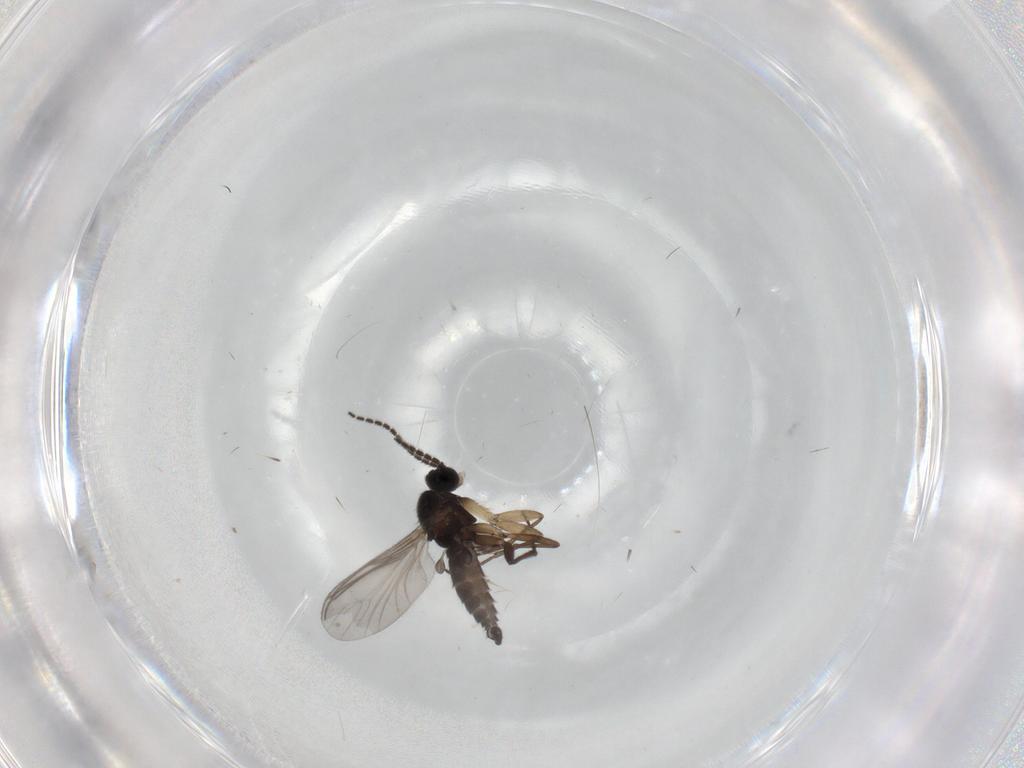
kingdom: Animalia
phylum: Arthropoda
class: Insecta
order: Diptera
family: Sciaridae
